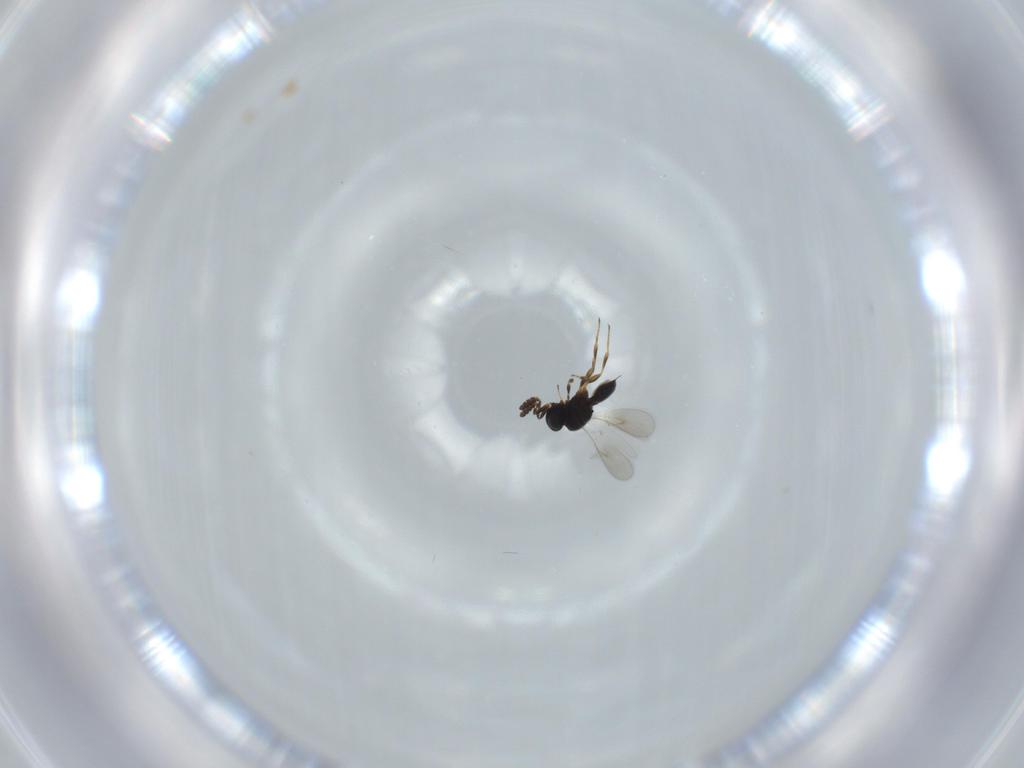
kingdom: Animalia
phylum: Arthropoda
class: Insecta
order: Hymenoptera
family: Scelionidae
